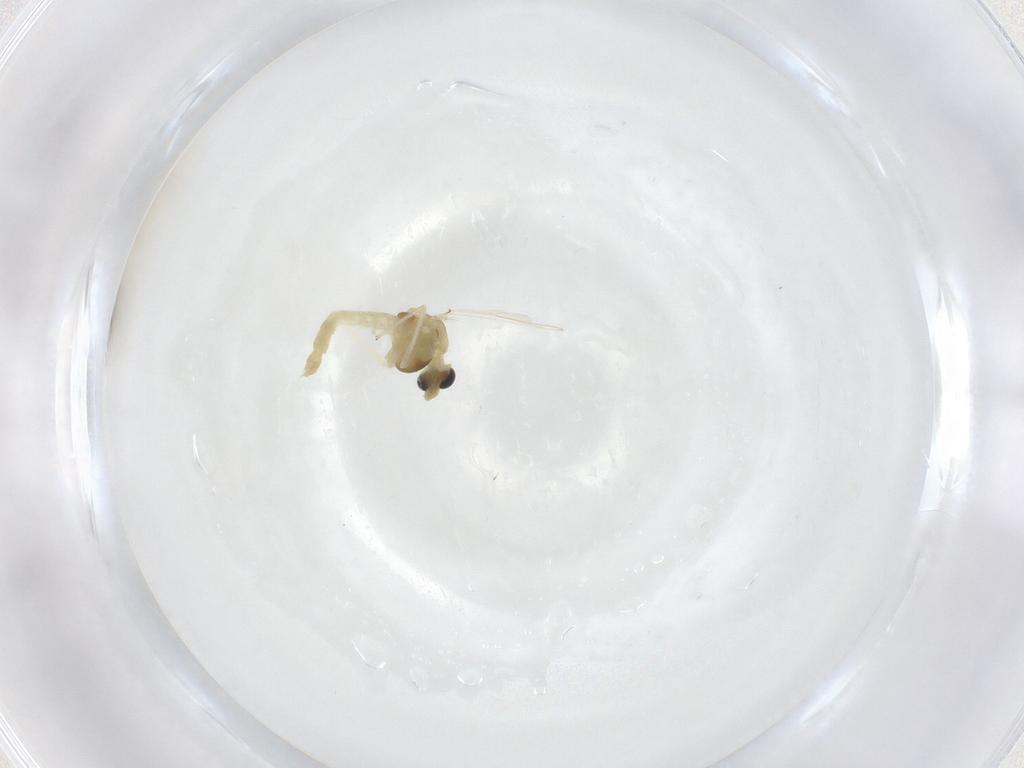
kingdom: Animalia
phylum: Arthropoda
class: Insecta
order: Diptera
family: Chironomidae
